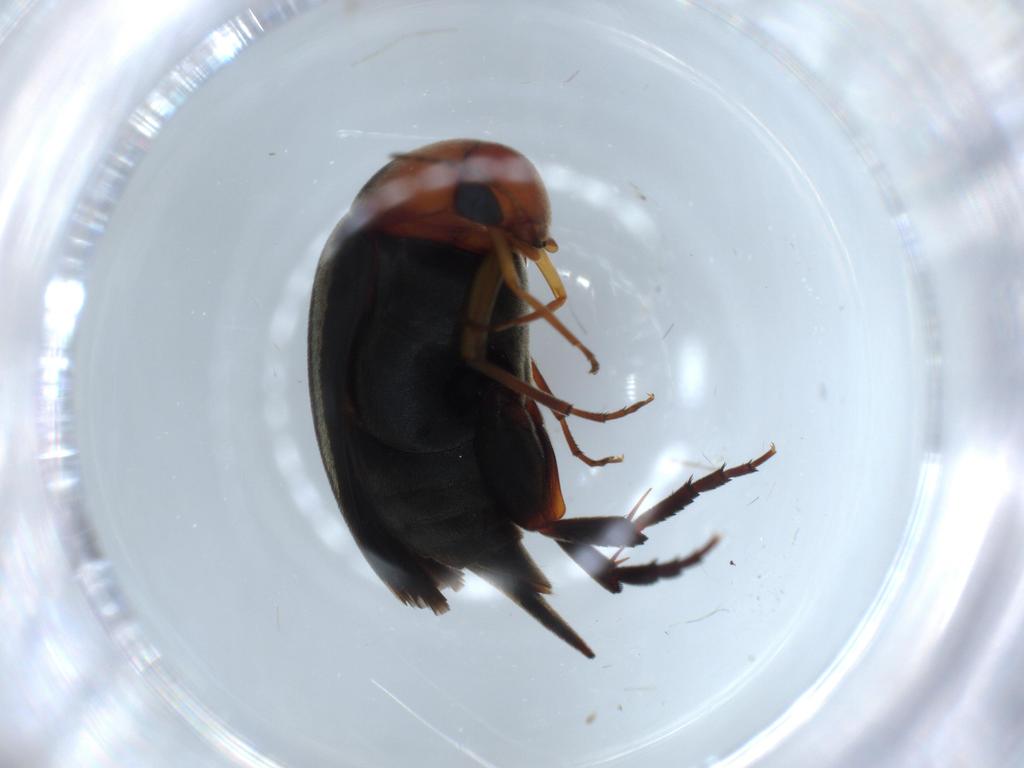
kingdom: Animalia
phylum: Arthropoda
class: Insecta
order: Coleoptera
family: Mordellidae
